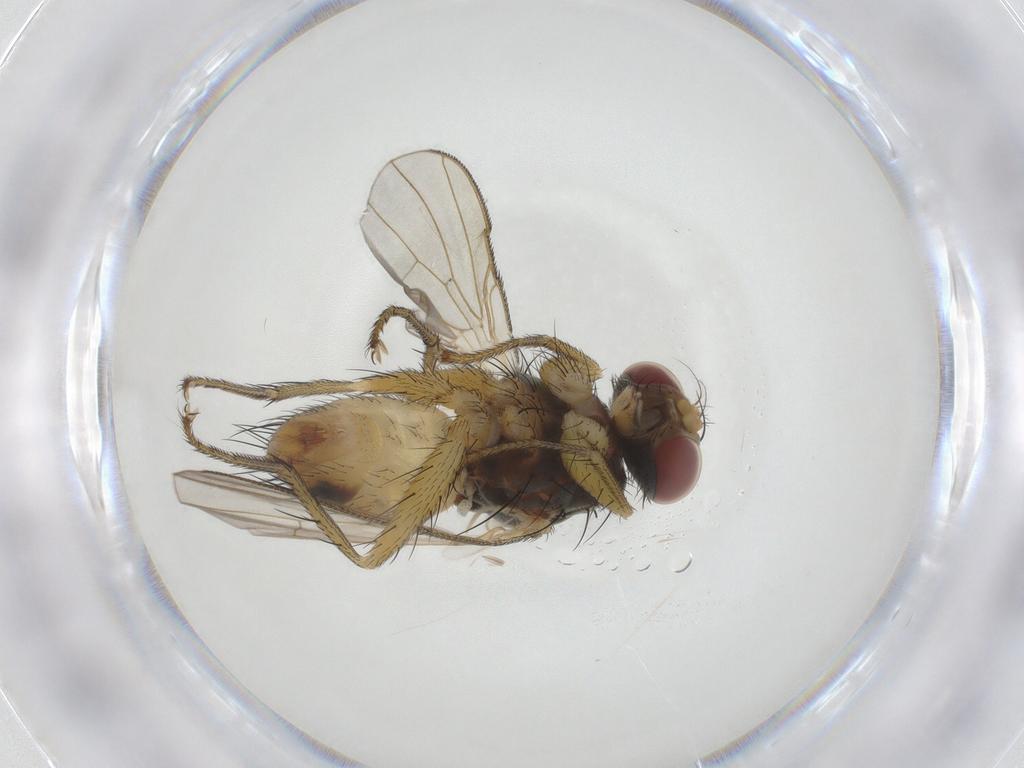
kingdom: Animalia
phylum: Arthropoda
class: Insecta
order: Diptera
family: Muscidae
